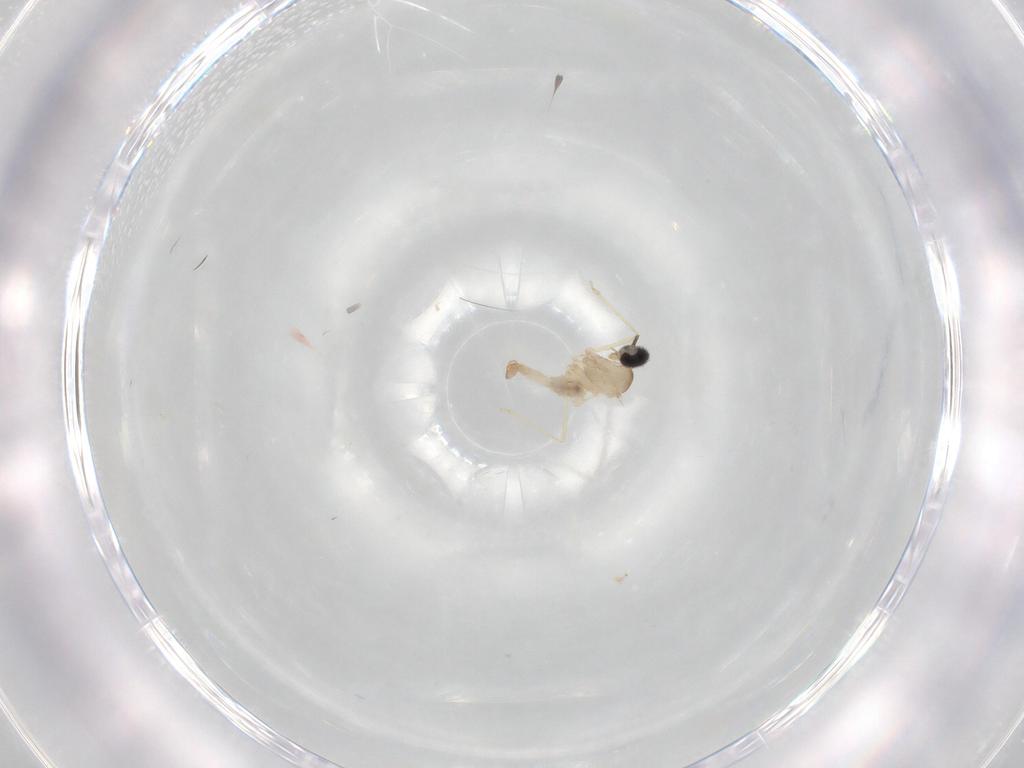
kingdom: Animalia
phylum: Arthropoda
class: Insecta
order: Diptera
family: Cecidomyiidae
